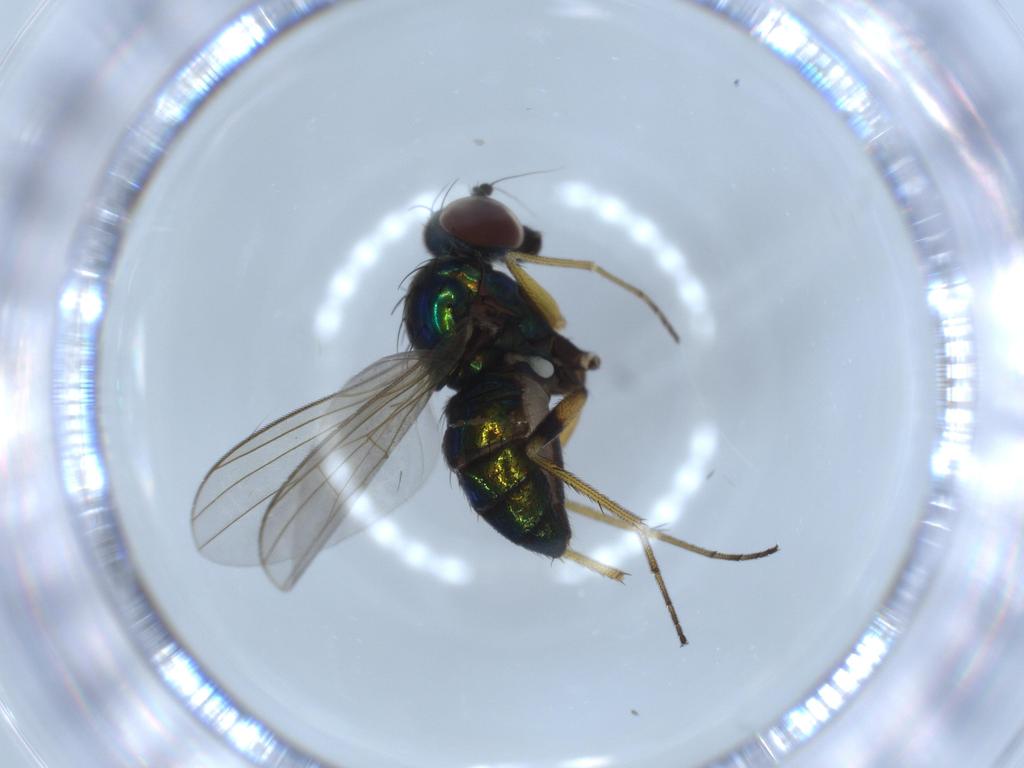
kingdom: Animalia
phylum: Arthropoda
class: Insecta
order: Diptera
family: Dolichopodidae
